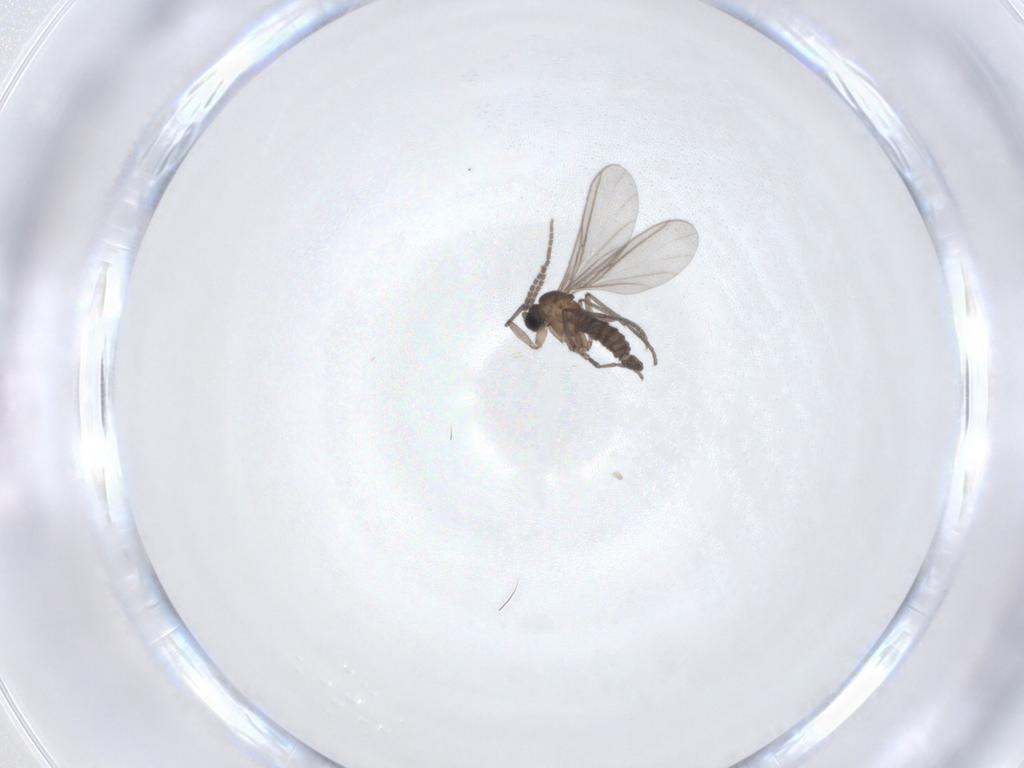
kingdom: Animalia
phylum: Arthropoda
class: Insecta
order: Diptera
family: Sciaridae
